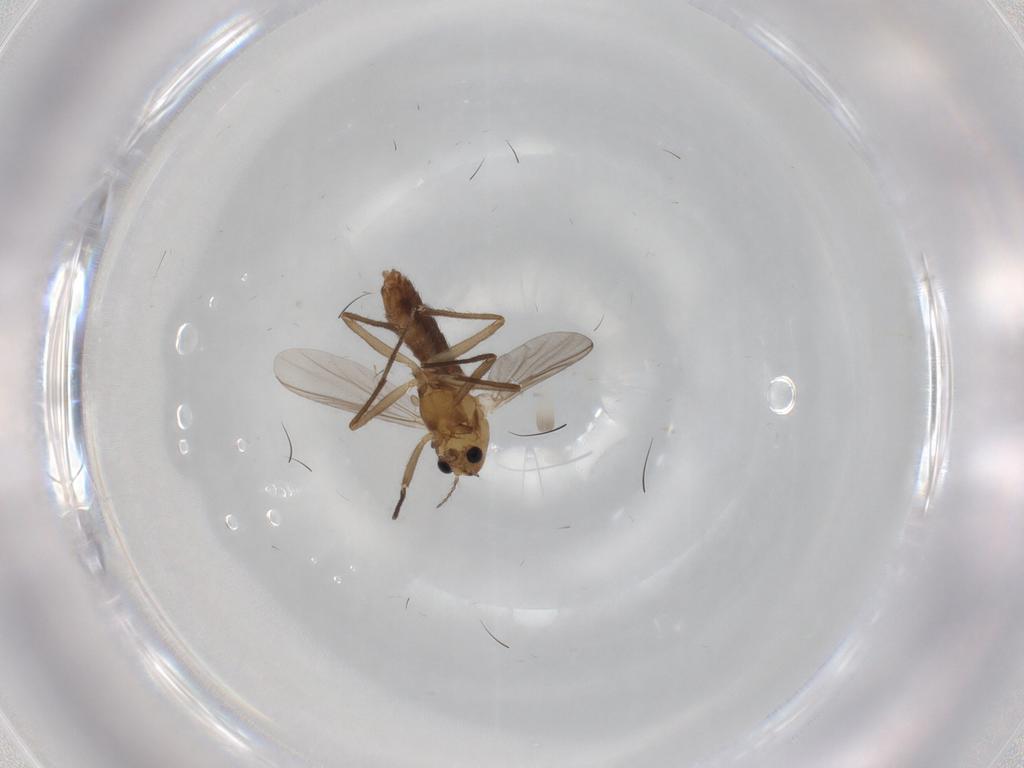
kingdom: Animalia
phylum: Arthropoda
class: Insecta
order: Diptera
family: Chironomidae
